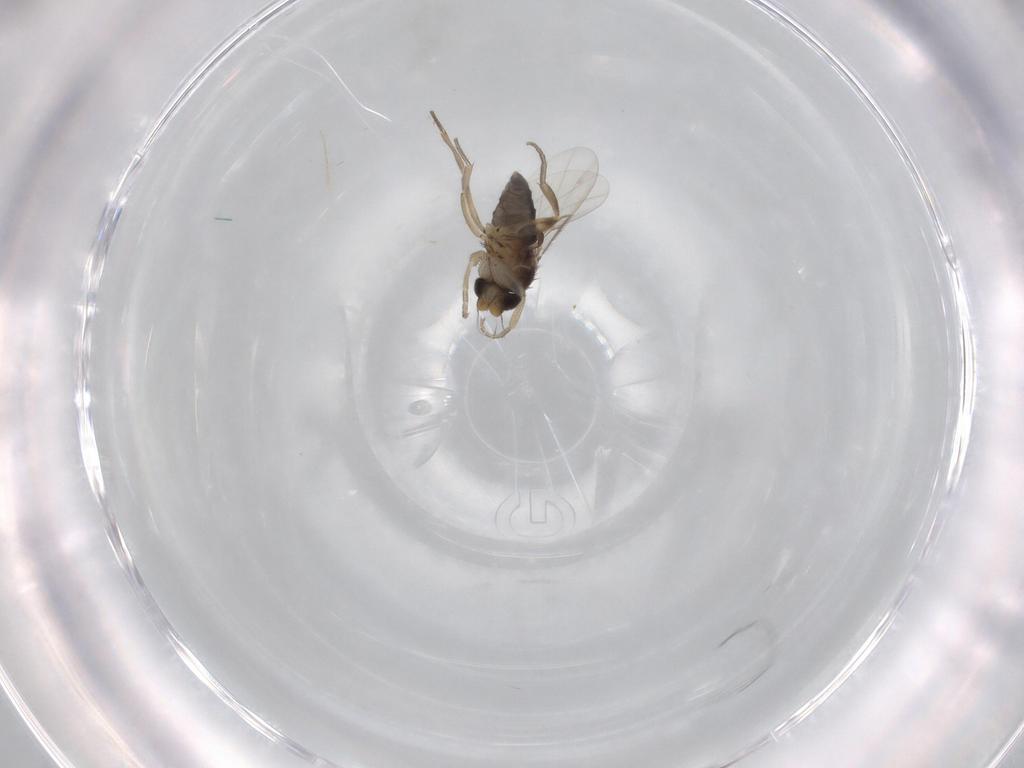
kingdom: Animalia
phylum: Arthropoda
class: Insecta
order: Diptera
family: Phoridae
